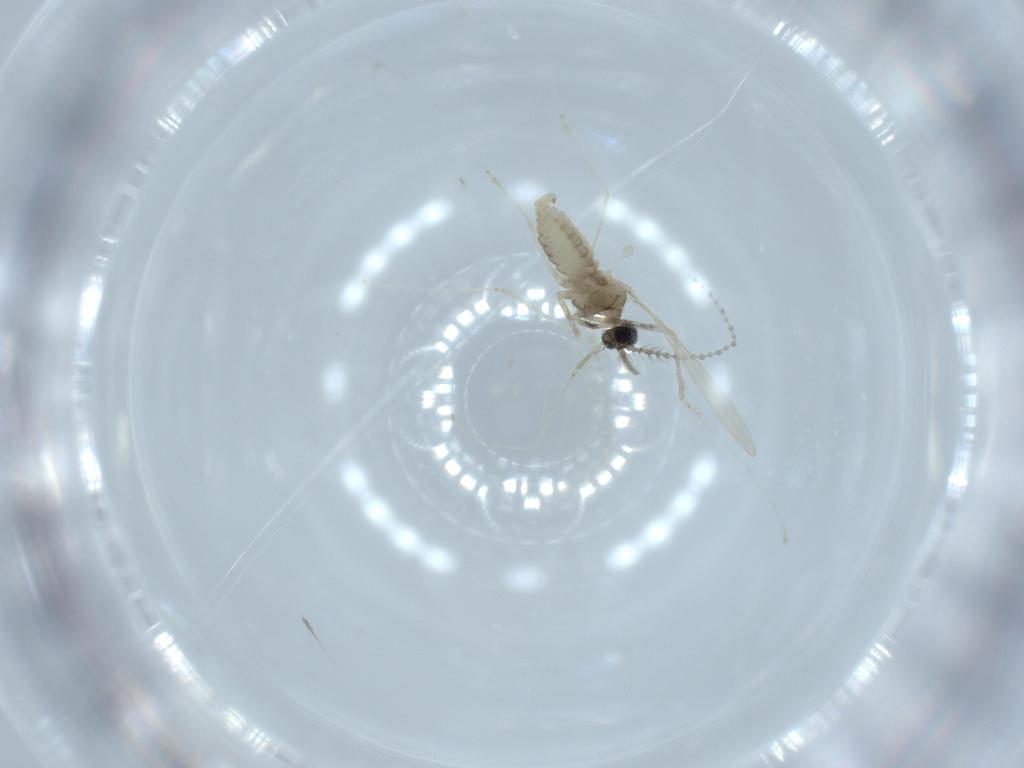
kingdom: Animalia
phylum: Arthropoda
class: Insecta
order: Diptera
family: Cecidomyiidae
